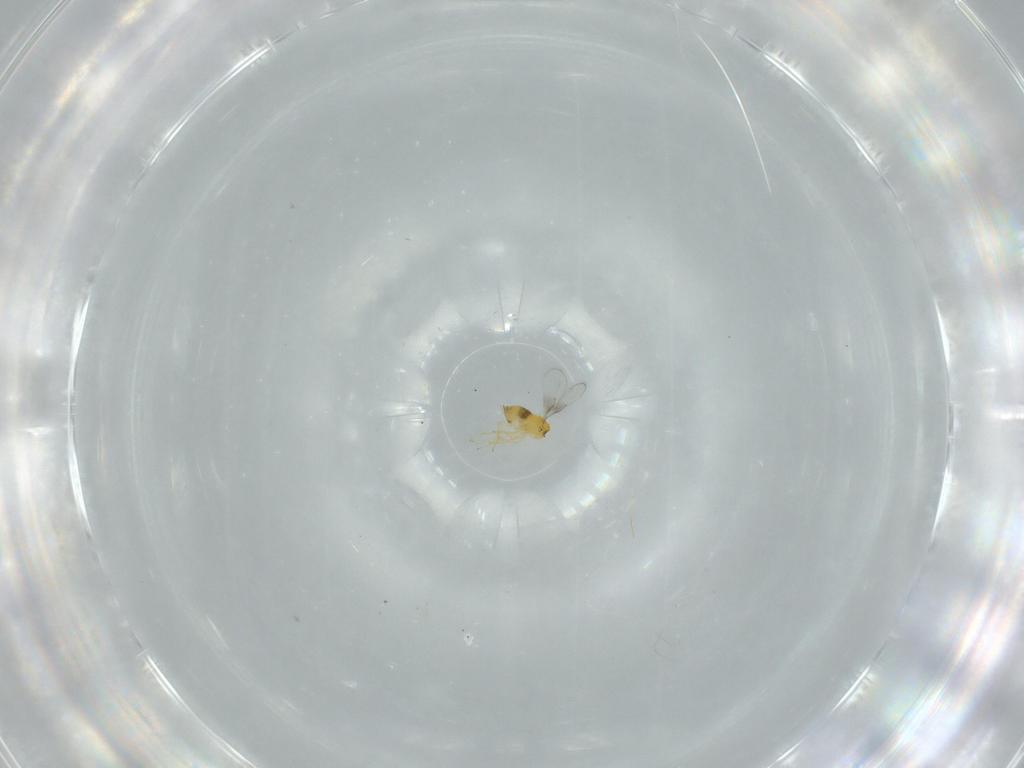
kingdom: Animalia
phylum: Arthropoda
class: Insecta
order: Hymenoptera
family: Trichogrammatidae
